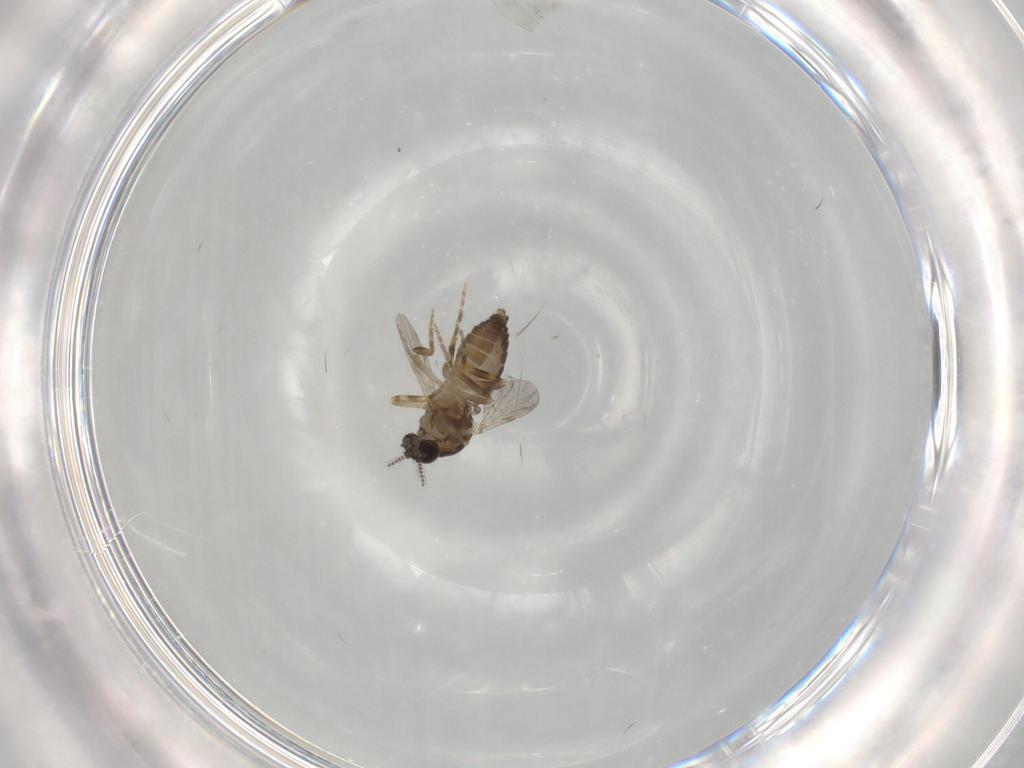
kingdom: Animalia
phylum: Arthropoda
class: Insecta
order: Diptera
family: Ceratopogonidae
